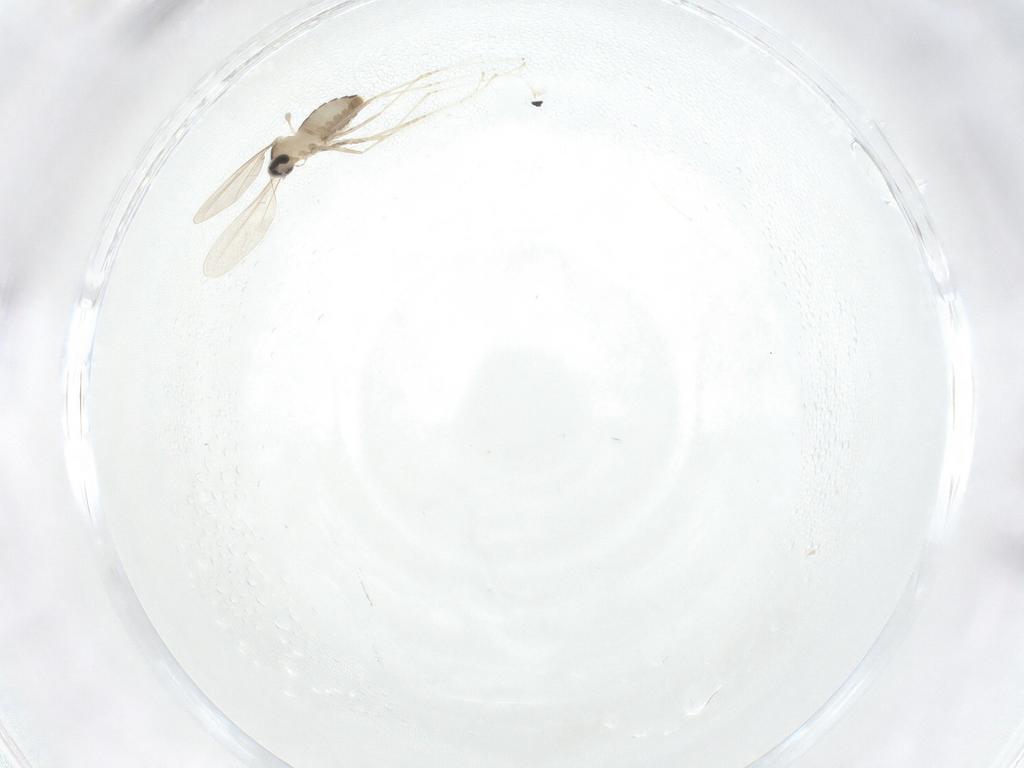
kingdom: Animalia
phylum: Arthropoda
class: Insecta
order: Diptera
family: Cecidomyiidae
